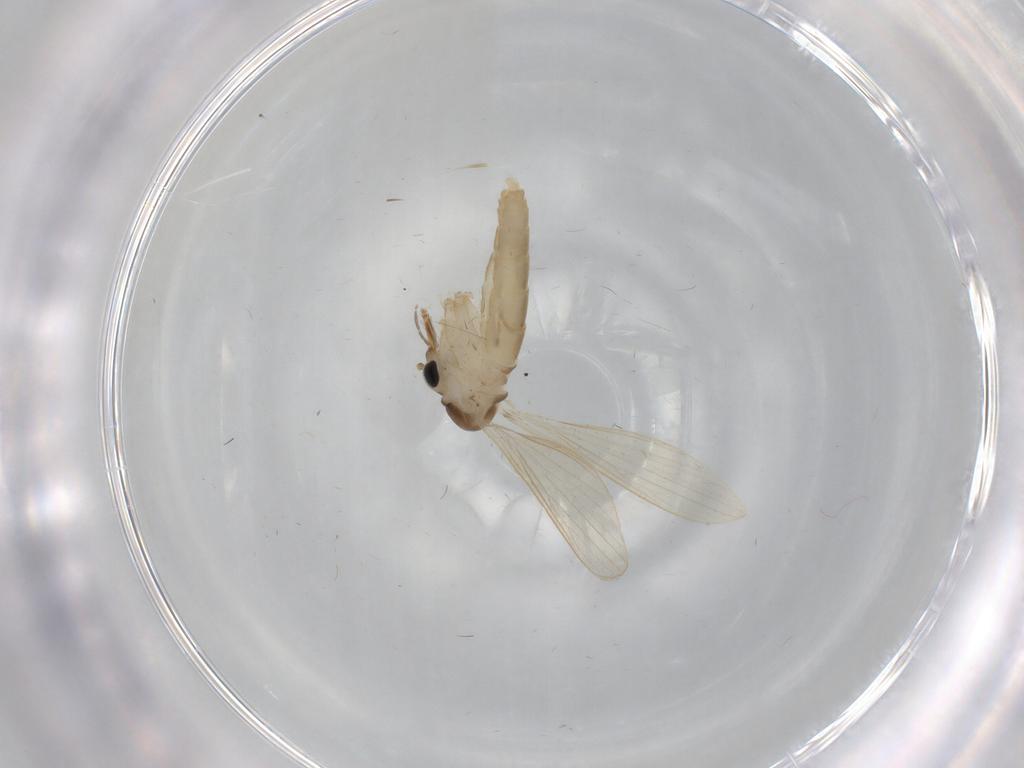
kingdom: Animalia
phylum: Arthropoda
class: Insecta
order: Diptera
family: Psychodidae
